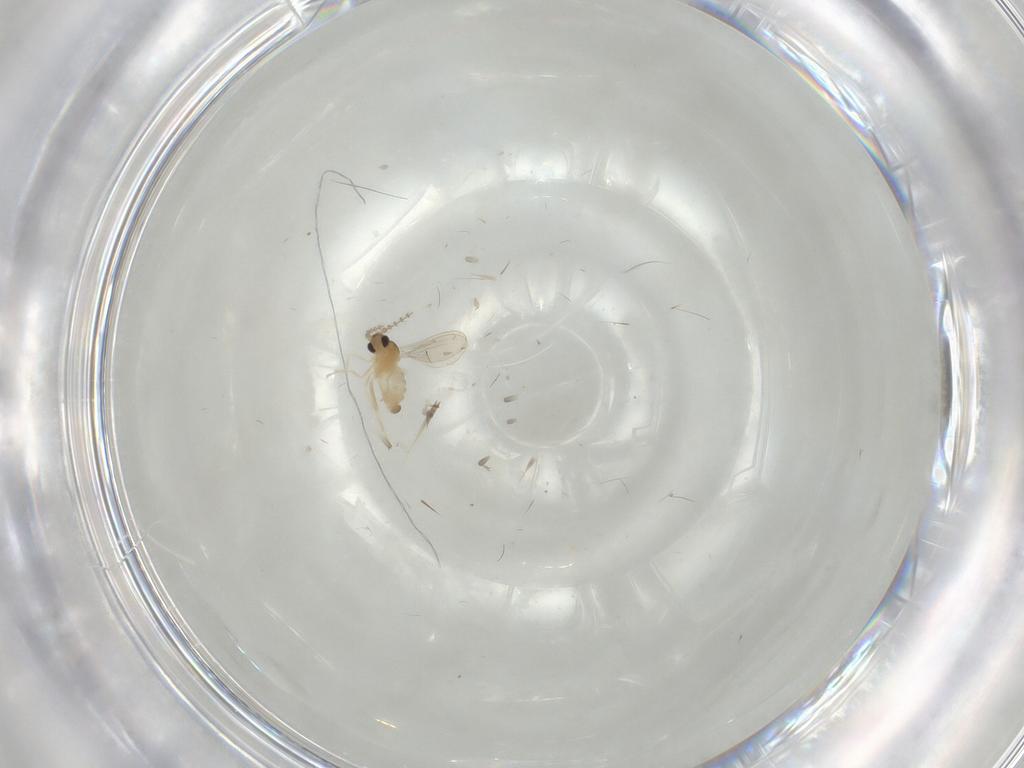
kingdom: Animalia
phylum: Arthropoda
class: Insecta
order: Diptera
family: Cecidomyiidae
